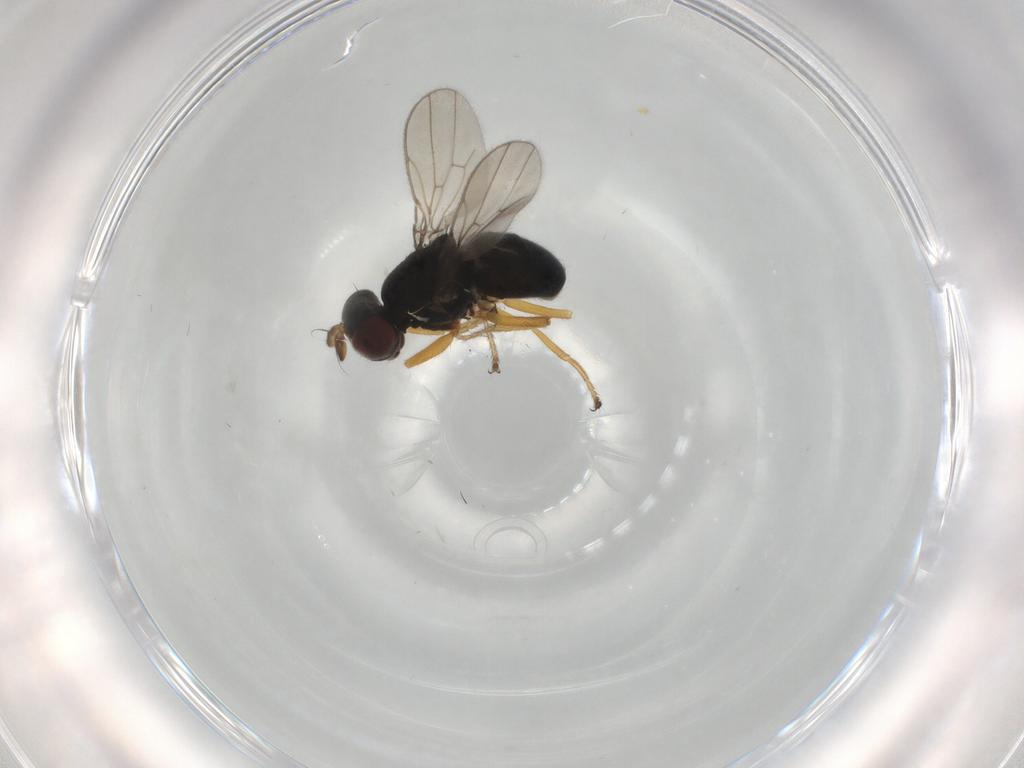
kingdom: Animalia
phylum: Arthropoda
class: Insecta
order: Diptera
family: Ephydridae
